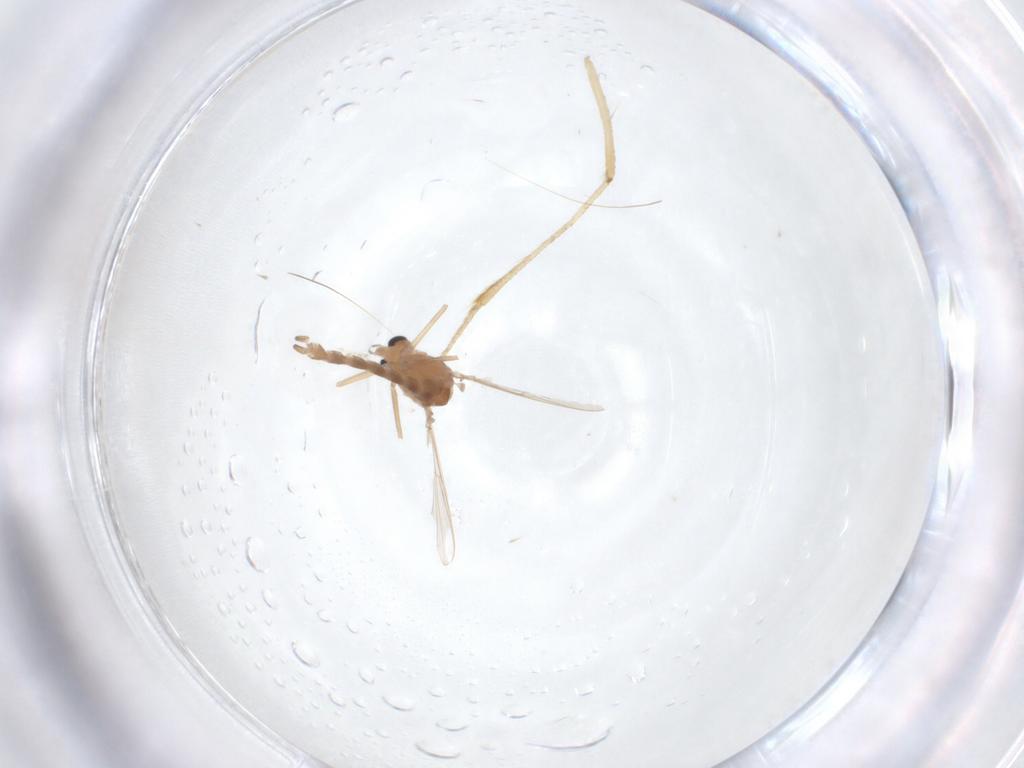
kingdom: Animalia
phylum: Arthropoda
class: Insecta
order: Diptera
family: Chironomidae
